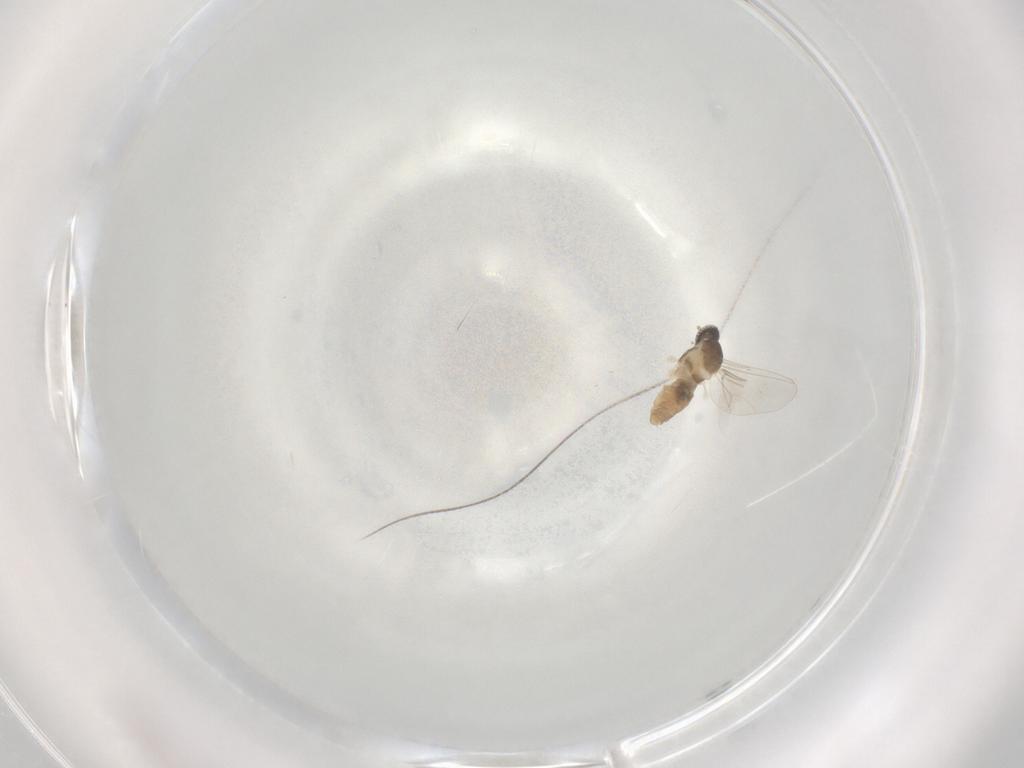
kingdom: Animalia
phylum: Arthropoda
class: Insecta
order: Diptera
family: Cecidomyiidae
